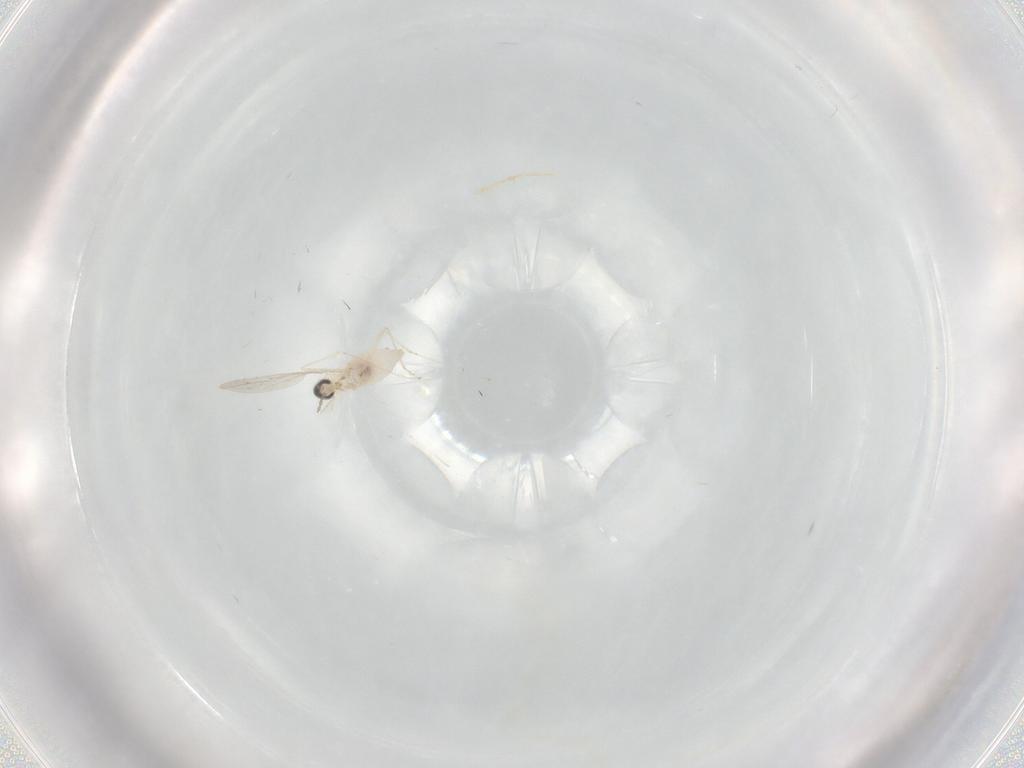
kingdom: Animalia
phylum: Arthropoda
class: Insecta
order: Diptera
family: Cecidomyiidae
